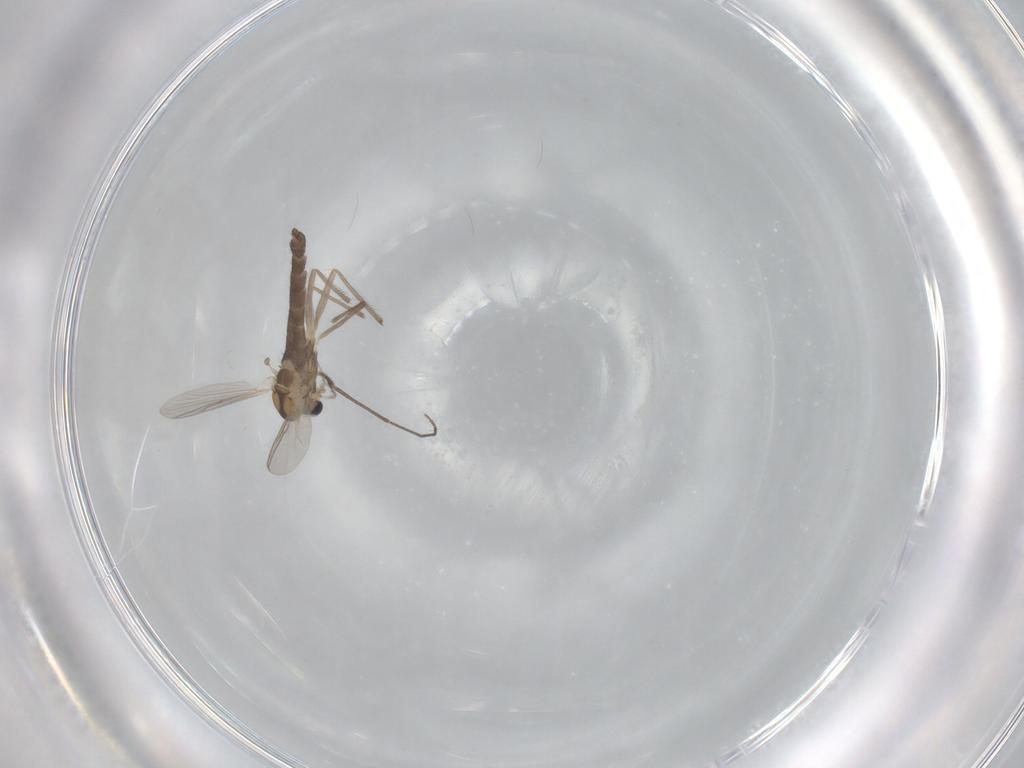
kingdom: Animalia
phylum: Arthropoda
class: Insecta
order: Diptera
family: Chironomidae
